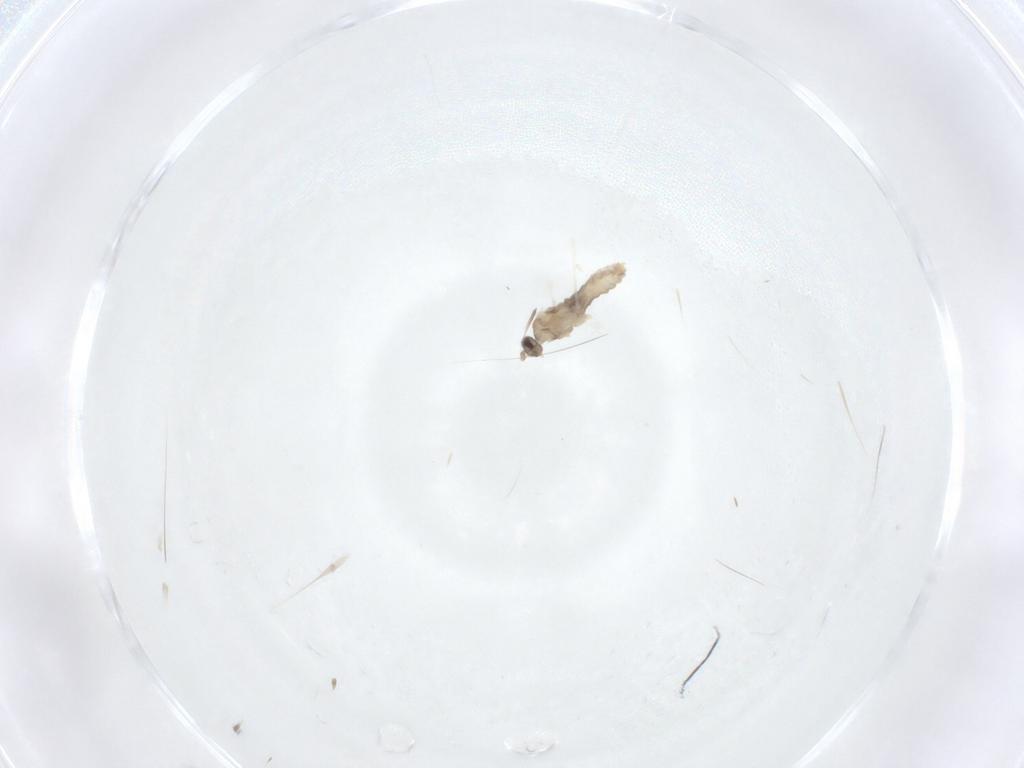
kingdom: Animalia
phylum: Arthropoda
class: Insecta
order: Diptera
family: Cecidomyiidae
